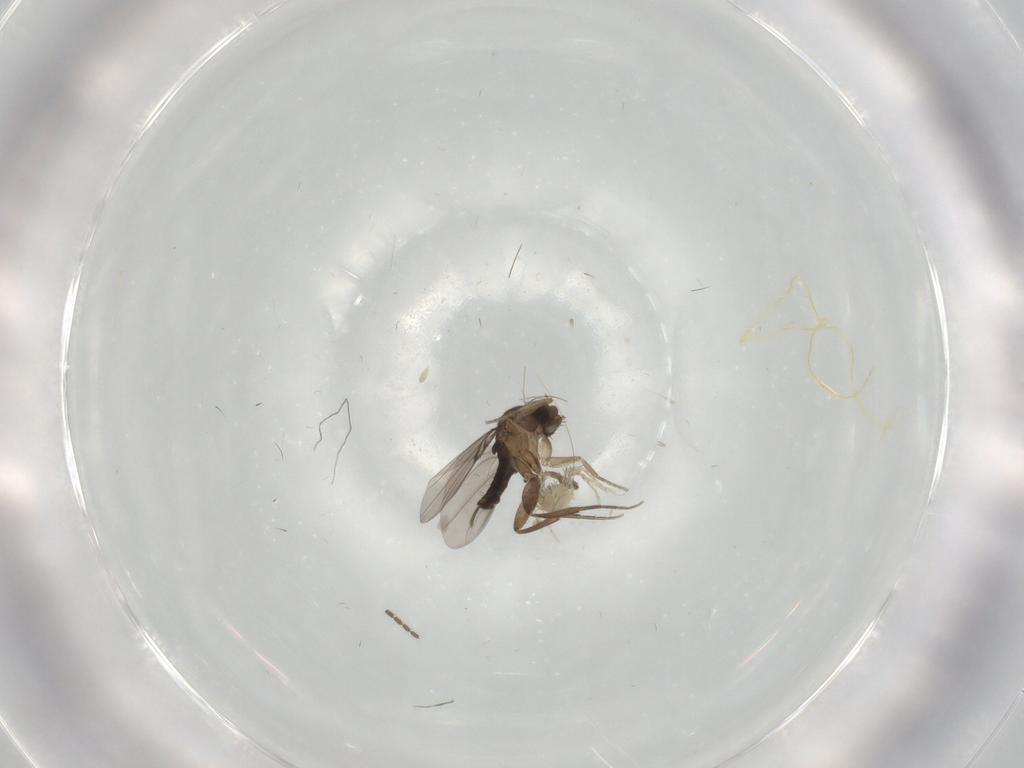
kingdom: Animalia
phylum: Arthropoda
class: Insecta
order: Diptera
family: Phoridae
